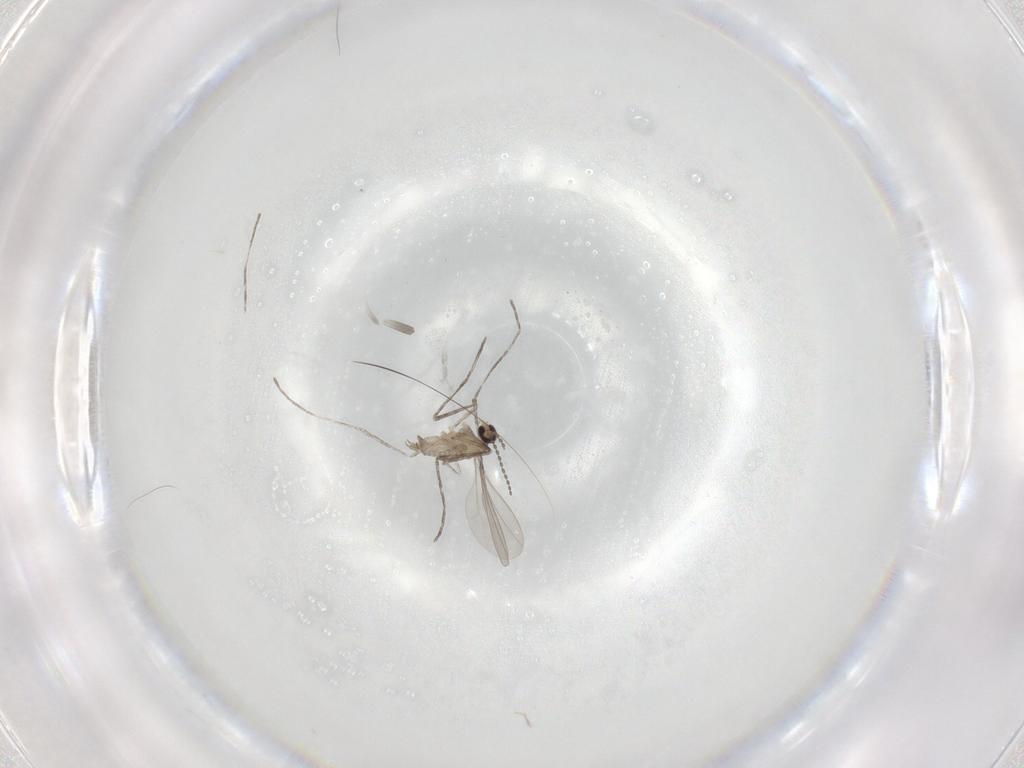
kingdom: Animalia
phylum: Arthropoda
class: Insecta
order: Diptera
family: Cecidomyiidae
